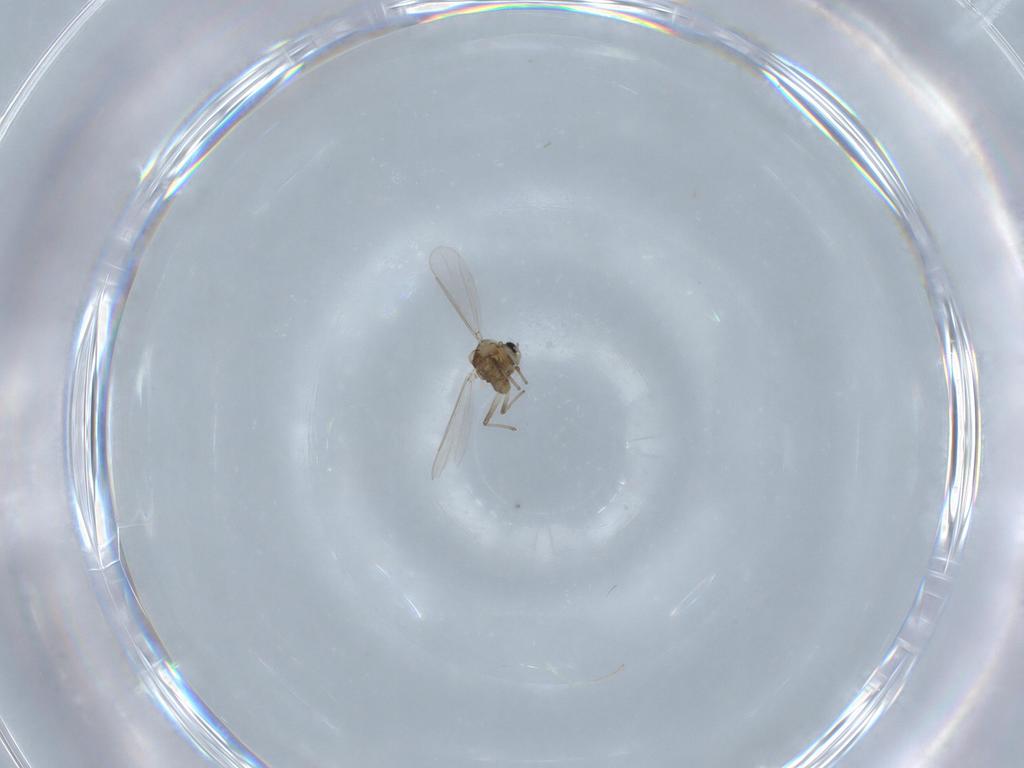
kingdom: Animalia
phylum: Arthropoda
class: Insecta
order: Diptera
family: Chironomidae
